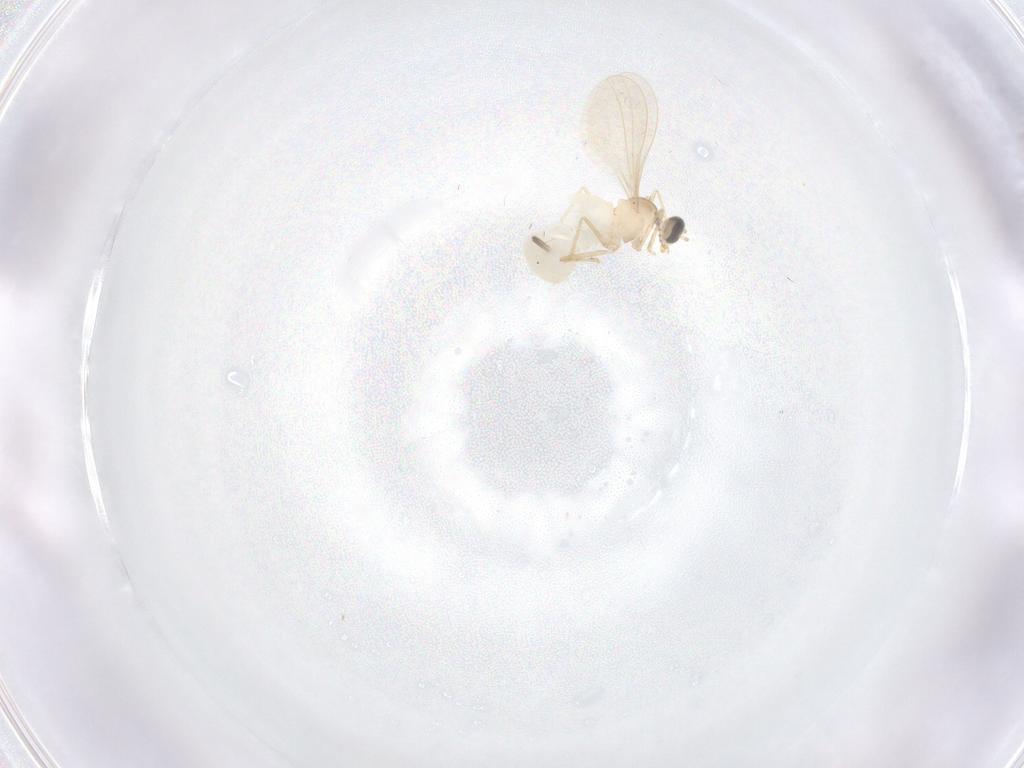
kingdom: Animalia
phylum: Arthropoda
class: Insecta
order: Diptera
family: Cecidomyiidae
